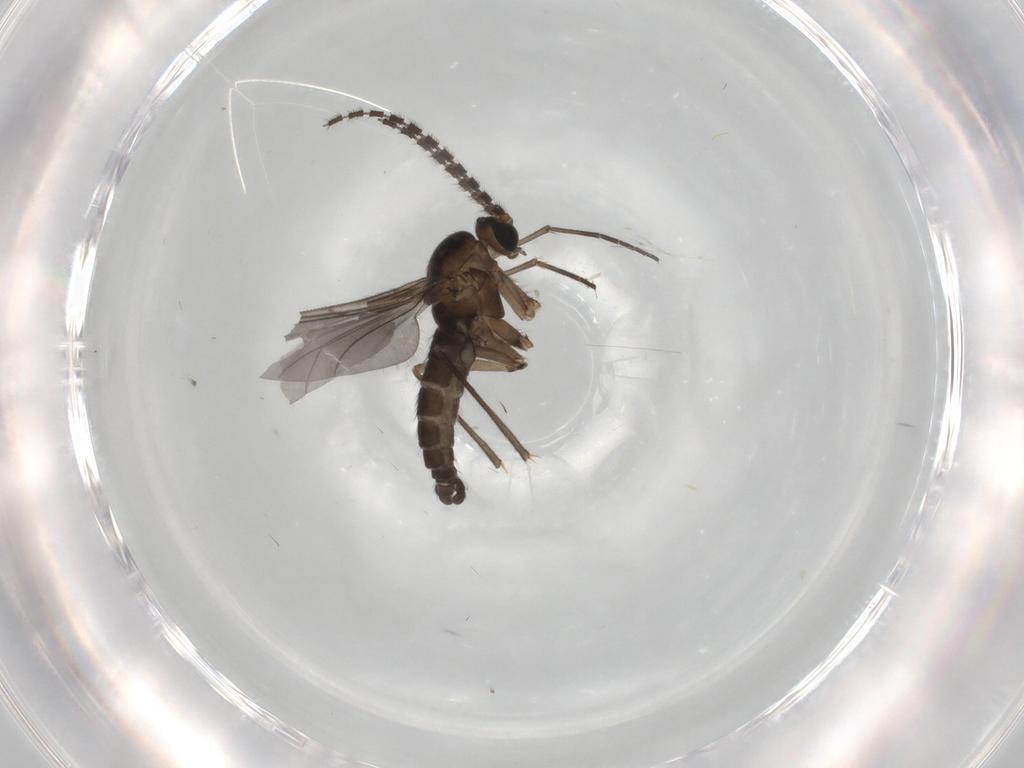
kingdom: Animalia
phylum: Arthropoda
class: Insecta
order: Diptera
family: Sciaridae
